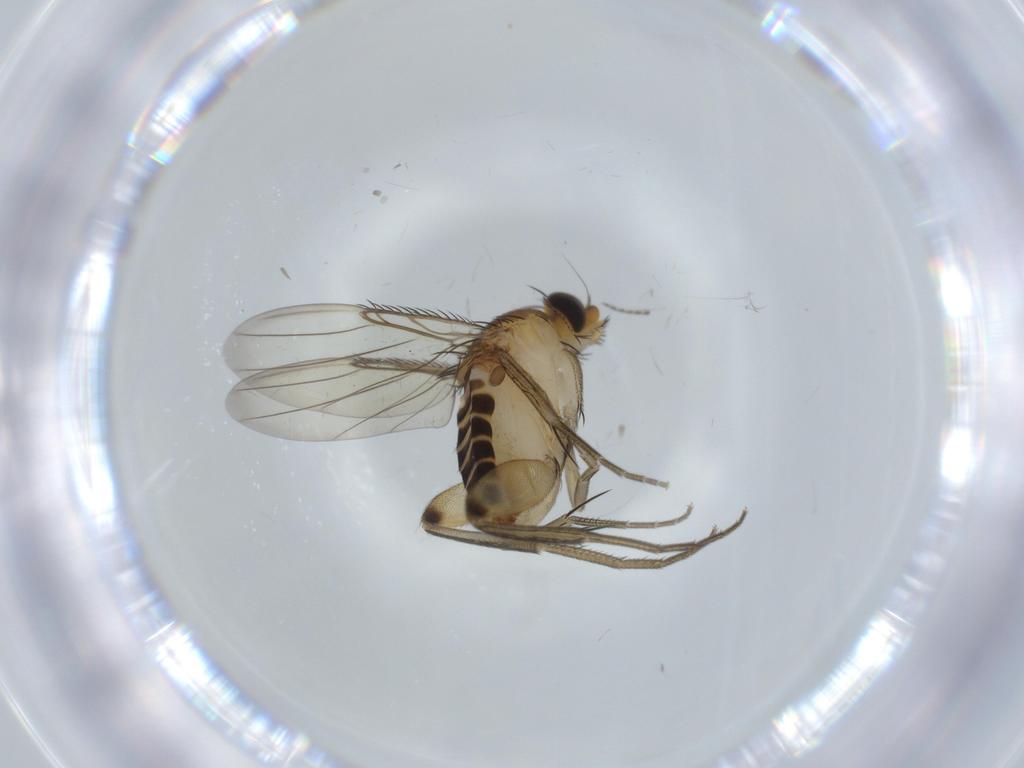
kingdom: Animalia
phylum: Arthropoda
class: Insecta
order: Diptera
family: Phoridae
